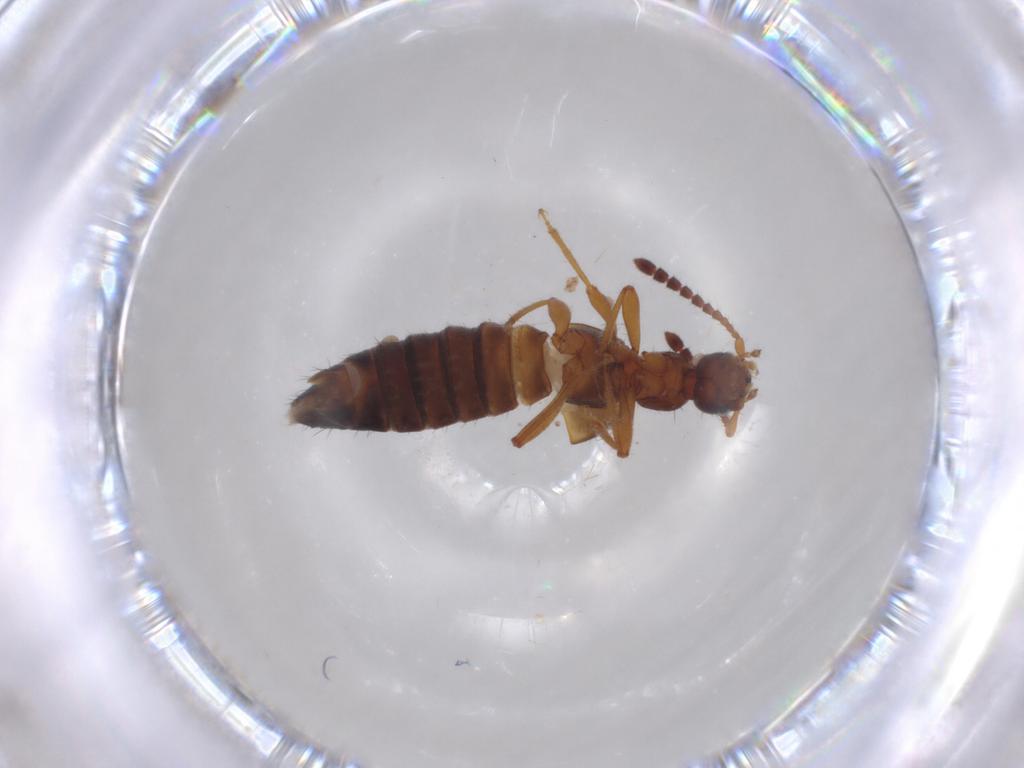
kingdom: Animalia
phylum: Arthropoda
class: Insecta
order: Coleoptera
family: Staphylinidae
